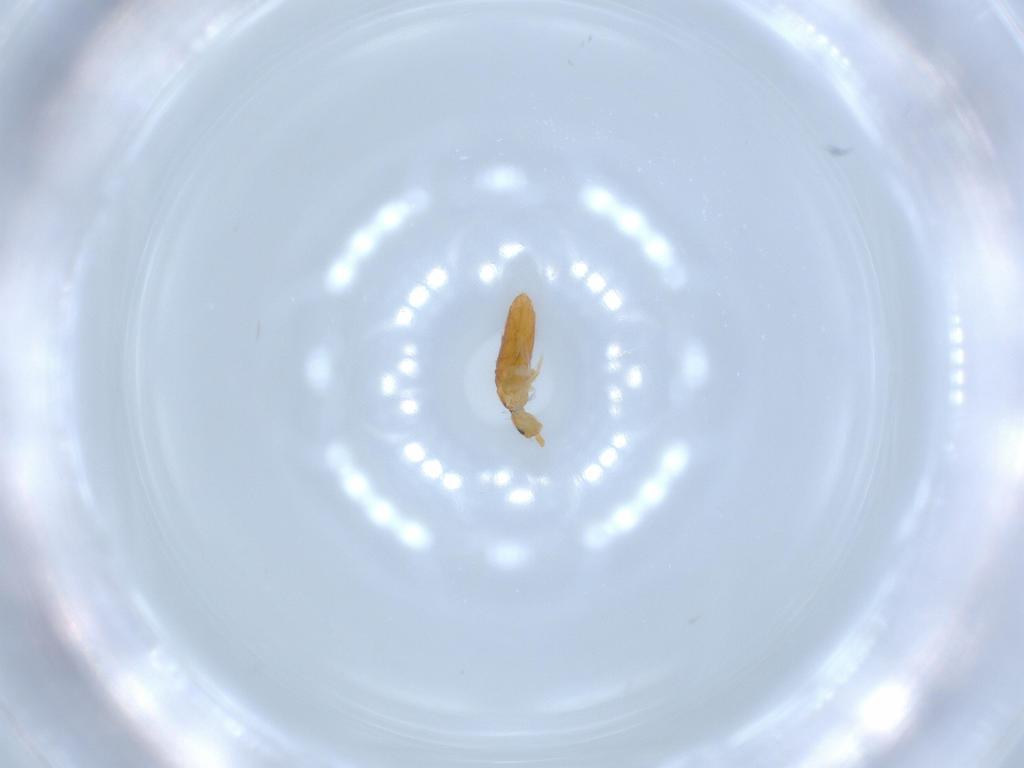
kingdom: Animalia
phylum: Arthropoda
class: Collembola
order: Entomobryomorpha
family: Entomobryidae
